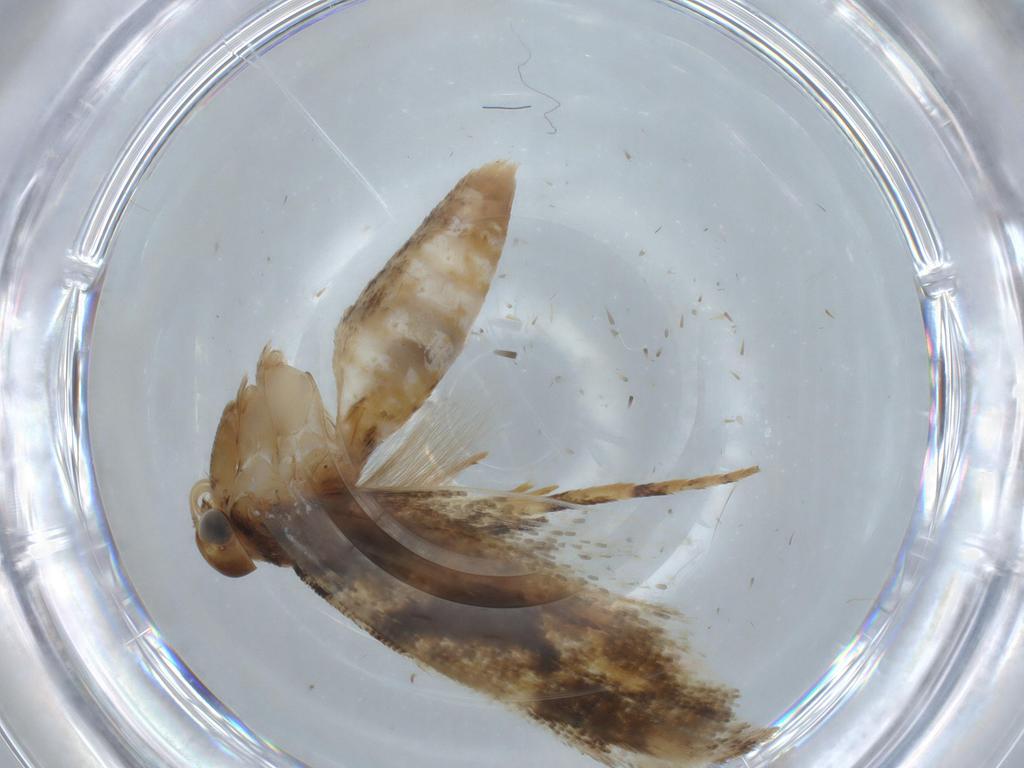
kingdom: Animalia
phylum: Arthropoda
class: Insecta
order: Lepidoptera
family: Gelechiidae
